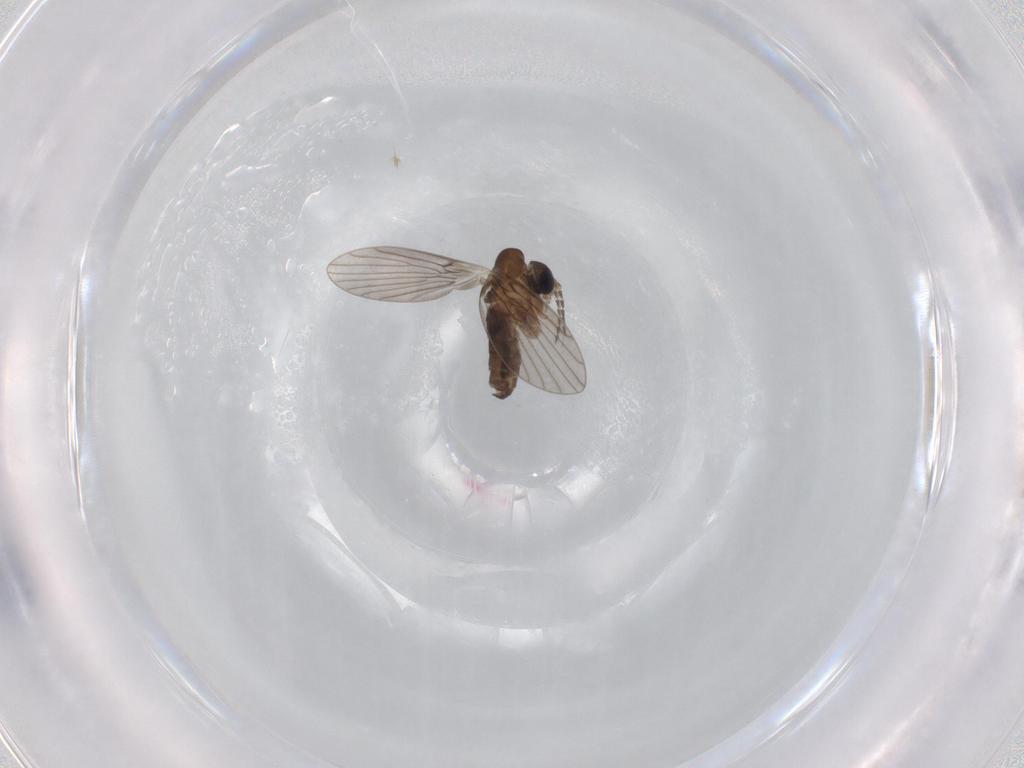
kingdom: Animalia
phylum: Arthropoda
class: Insecta
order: Diptera
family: Psychodidae
